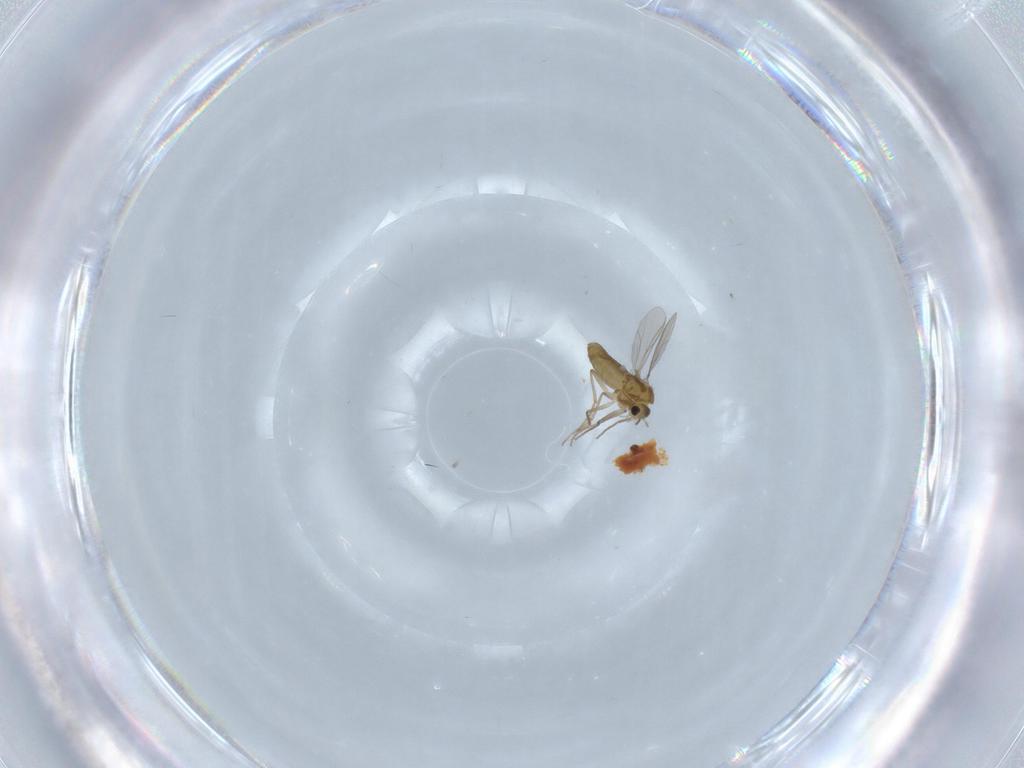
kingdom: Animalia
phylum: Arthropoda
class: Insecta
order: Diptera
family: Chironomidae
